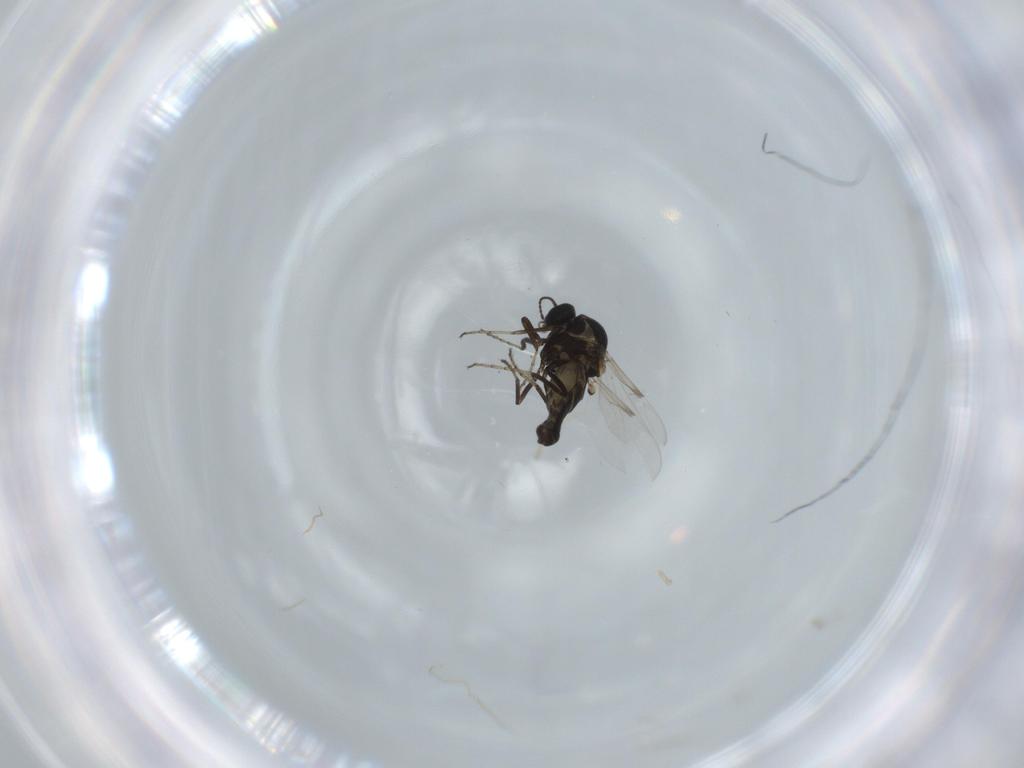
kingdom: Animalia
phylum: Arthropoda
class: Insecta
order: Diptera
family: Ceratopogonidae
